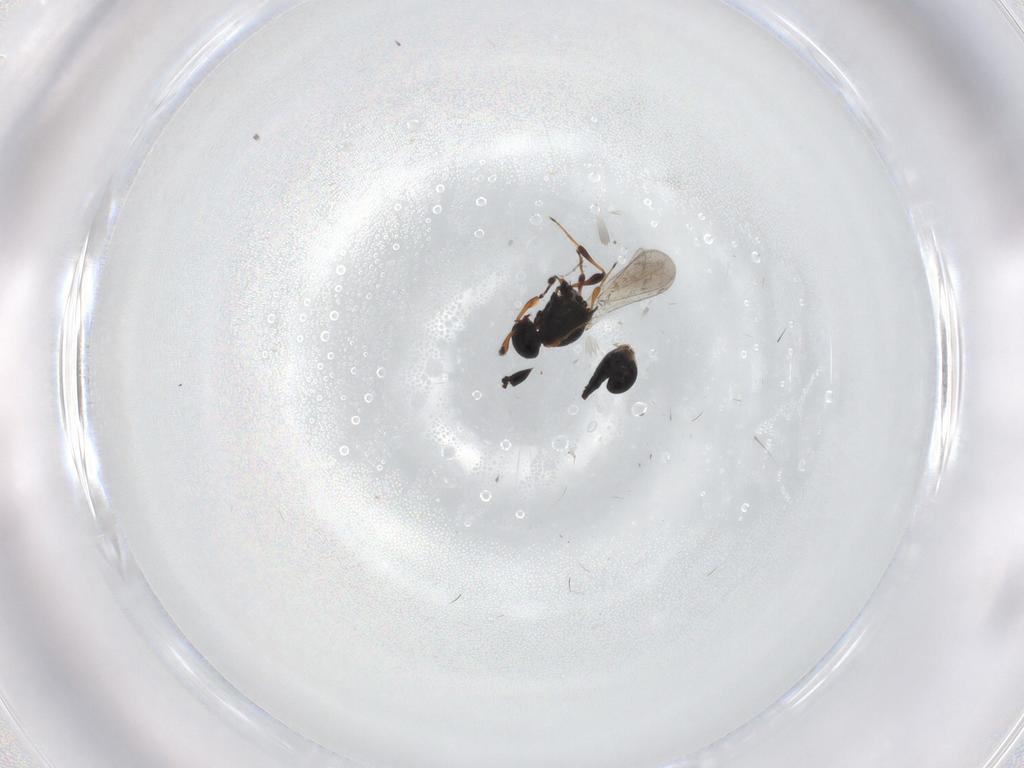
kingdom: Animalia
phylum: Arthropoda
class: Insecta
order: Hymenoptera
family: Platygastridae
